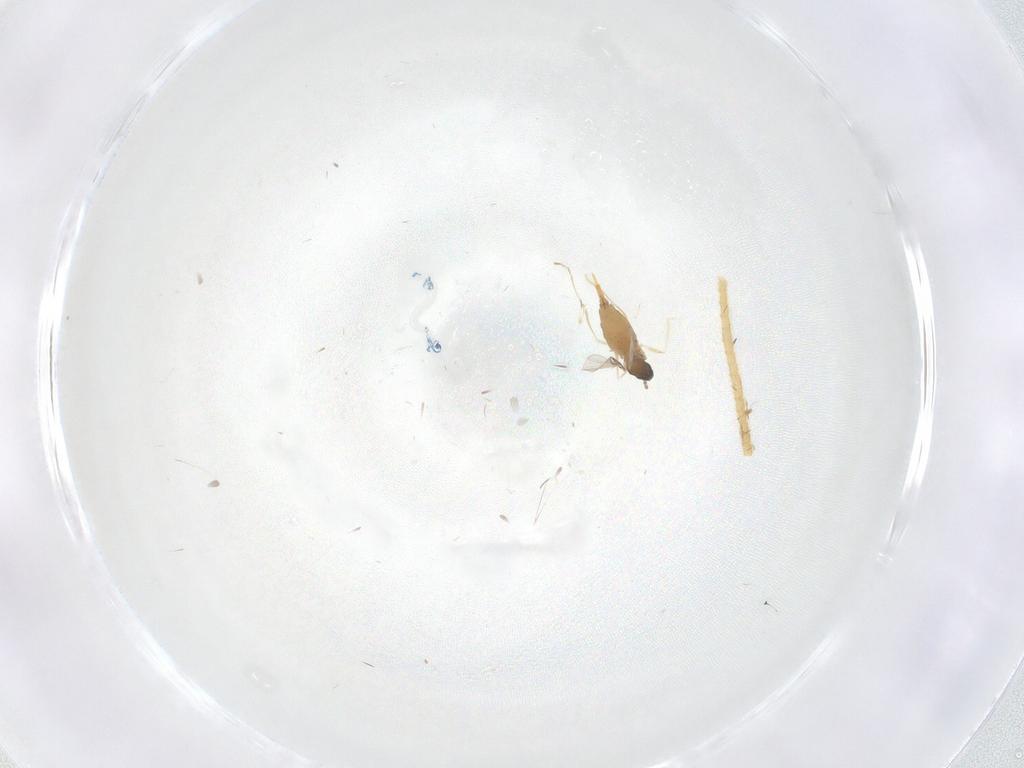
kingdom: Animalia
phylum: Arthropoda
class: Insecta
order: Diptera
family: Cecidomyiidae
